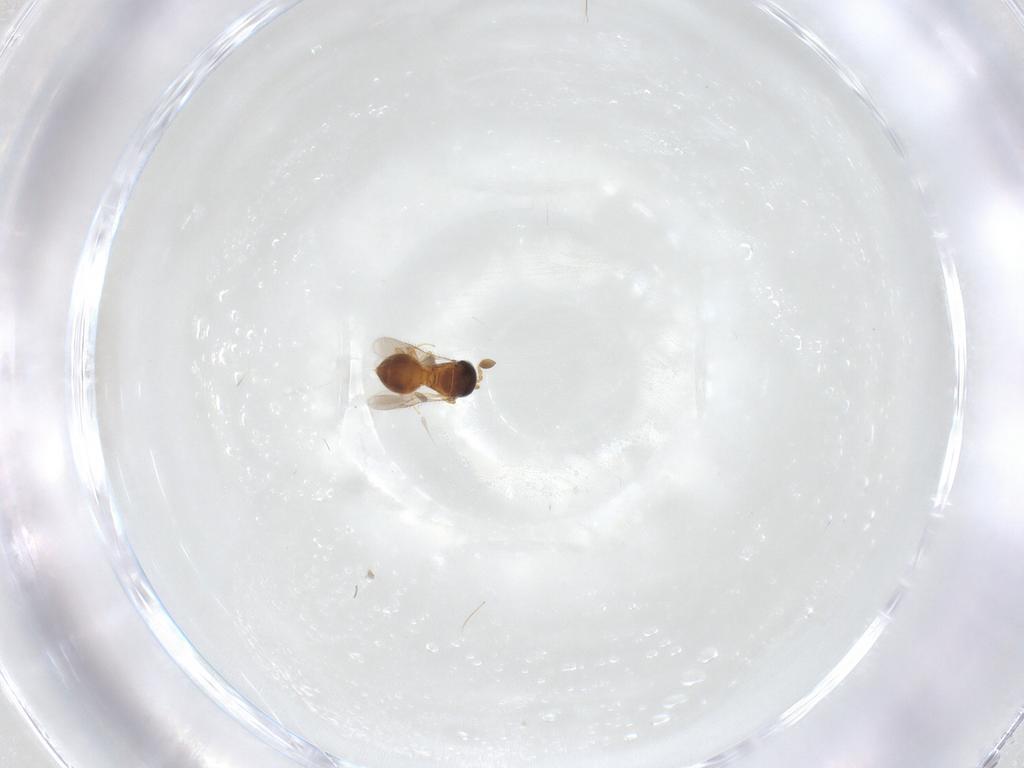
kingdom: Animalia
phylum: Arthropoda
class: Insecta
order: Hymenoptera
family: Scelionidae
